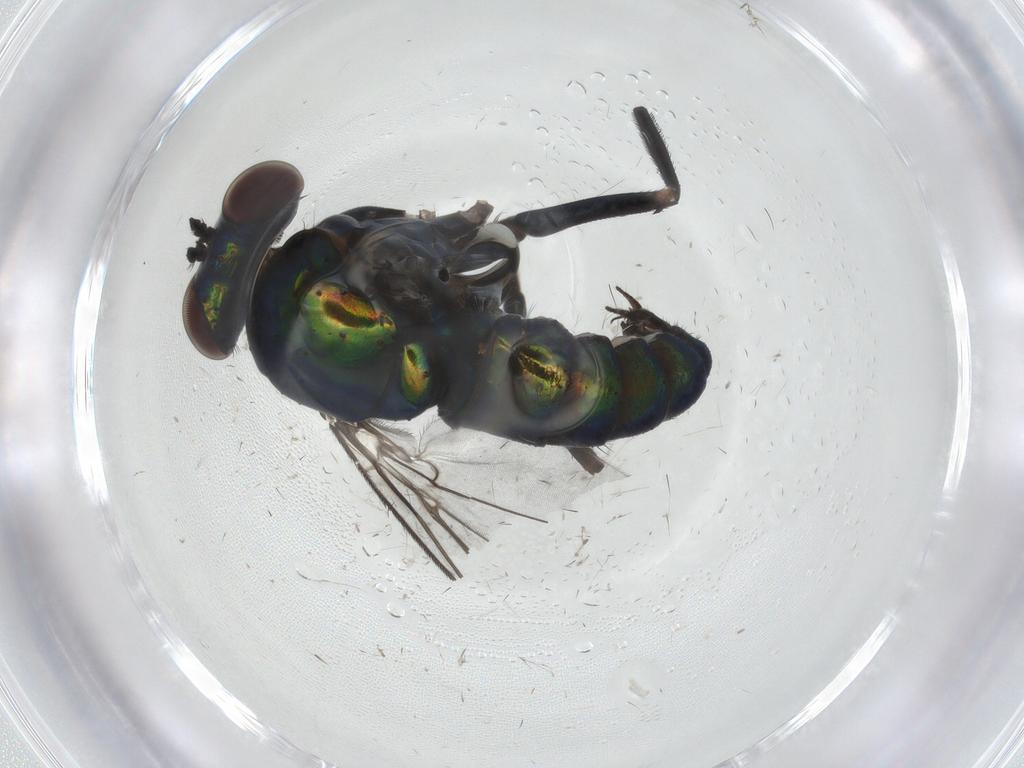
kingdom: Animalia
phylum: Arthropoda
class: Insecta
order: Diptera
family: Dolichopodidae
